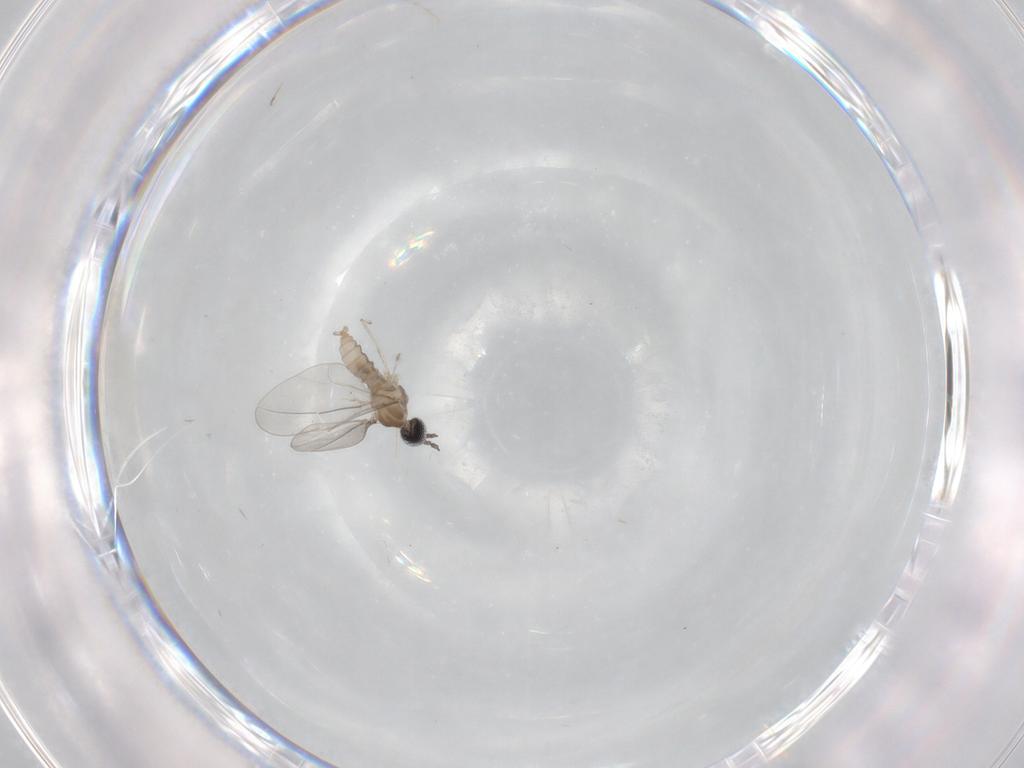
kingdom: Animalia
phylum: Arthropoda
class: Insecta
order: Diptera
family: Cecidomyiidae
